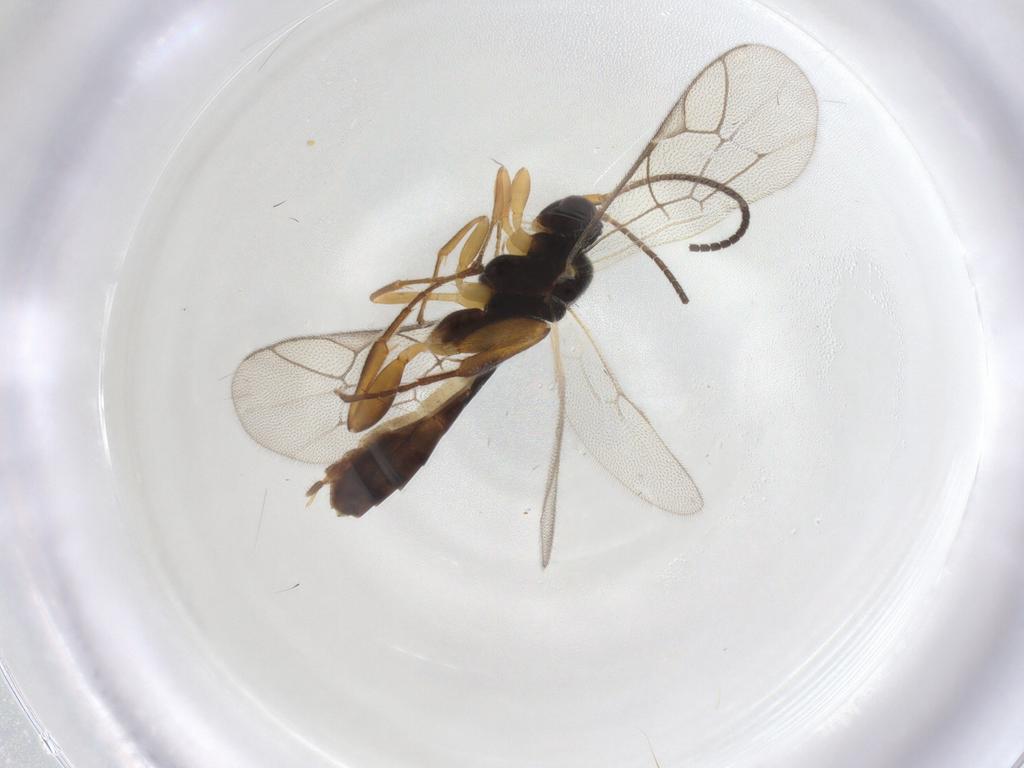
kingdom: Animalia
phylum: Arthropoda
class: Insecta
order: Hymenoptera
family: Ichneumonidae
